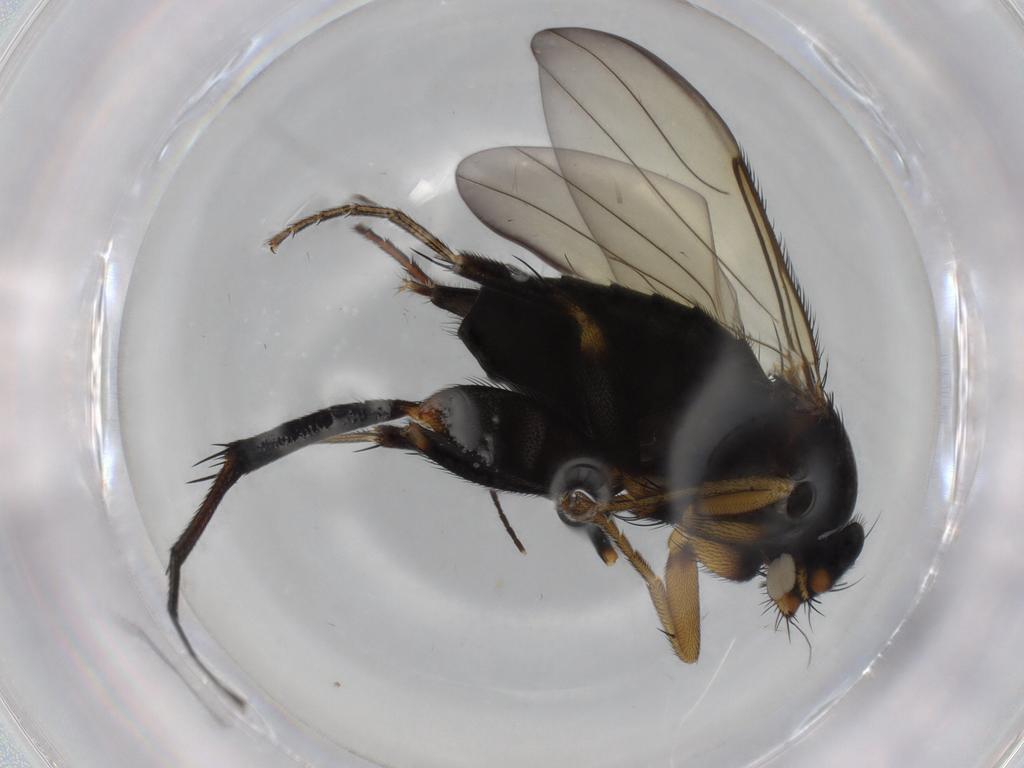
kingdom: Animalia
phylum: Arthropoda
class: Insecta
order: Diptera
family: Phoridae
